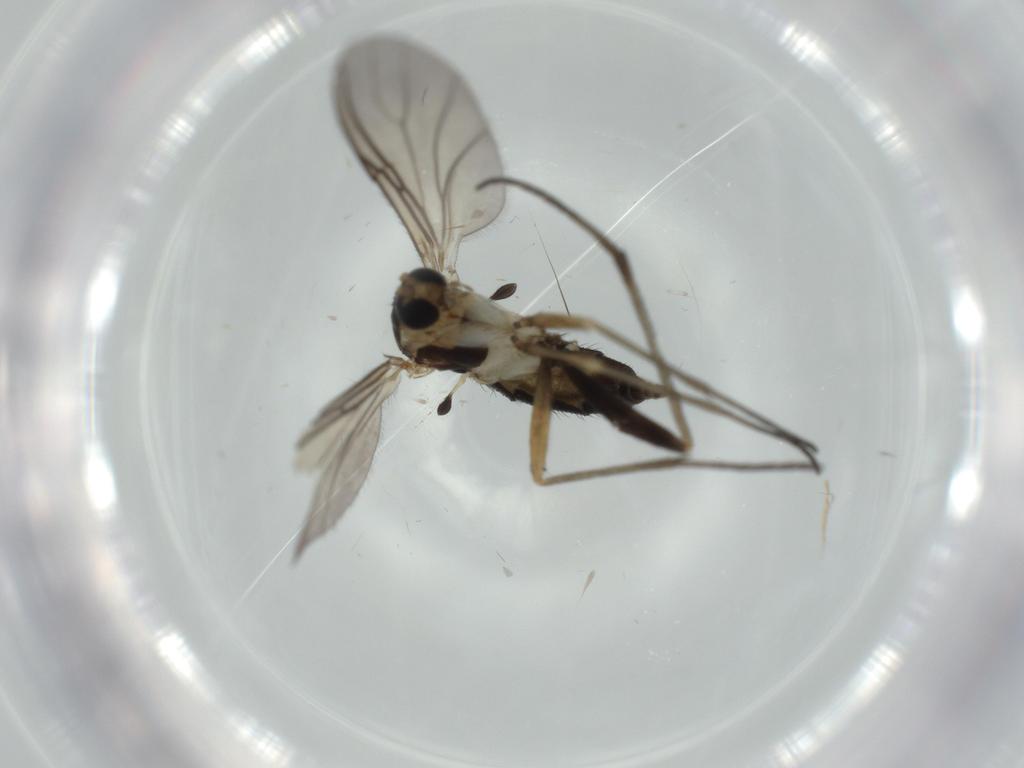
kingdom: Animalia
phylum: Arthropoda
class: Insecta
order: Diptera
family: Sciaridae
